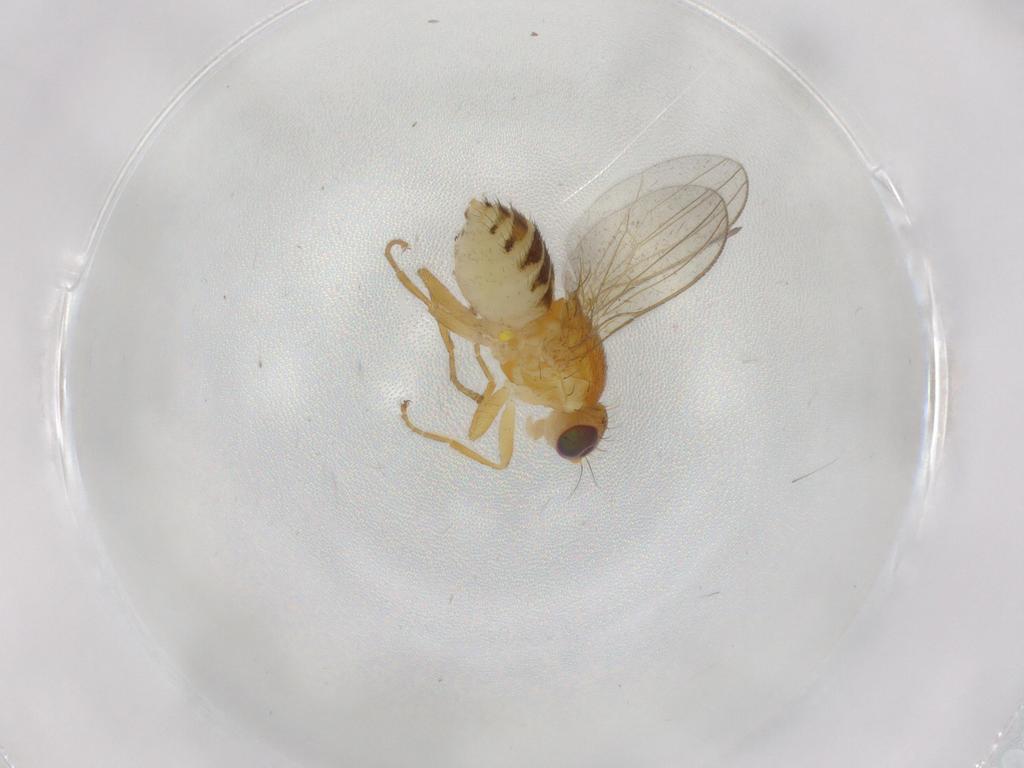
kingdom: Animalia
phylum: Arthropoda
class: Insecta
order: Diptera
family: Chyromyidae
